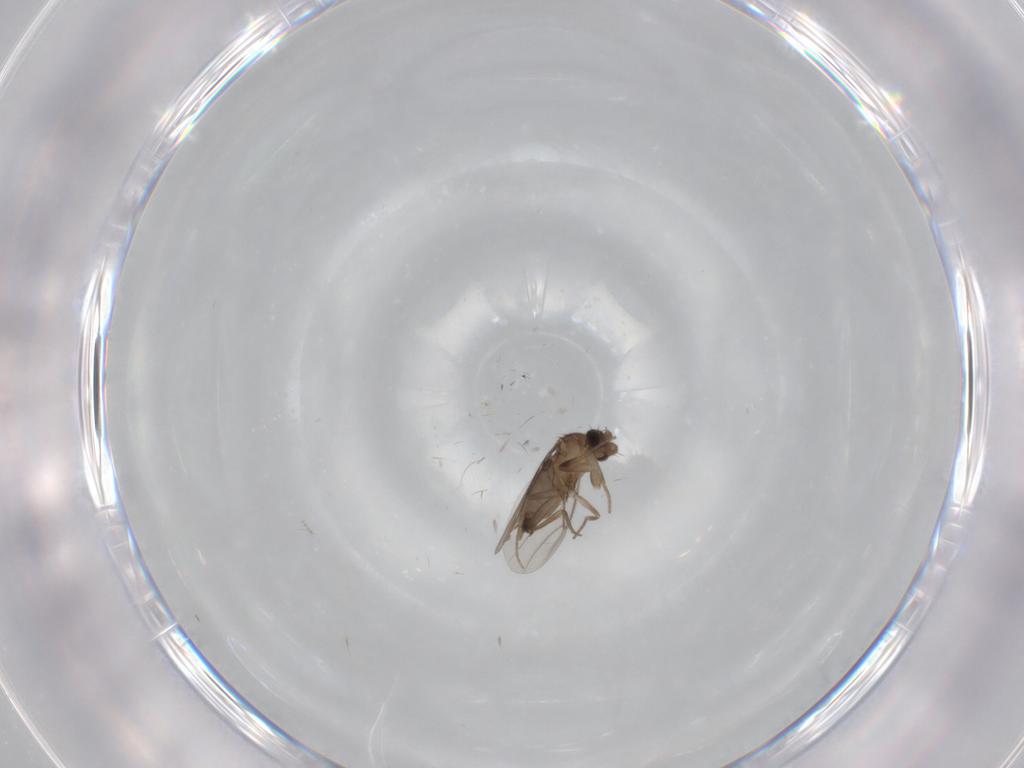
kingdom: Animalia
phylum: Arthropoda
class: Insecta
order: Diptera
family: Phoridae
